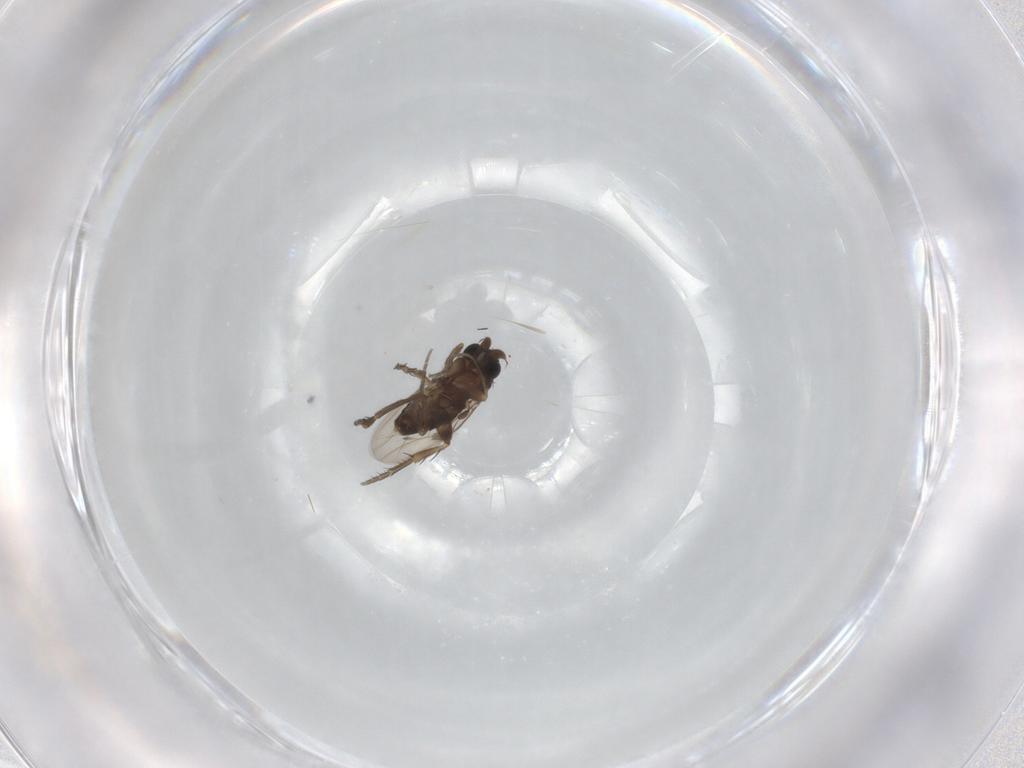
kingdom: Animalia
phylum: Arthropoda
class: Insecta
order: Diptera
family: Phoridae
